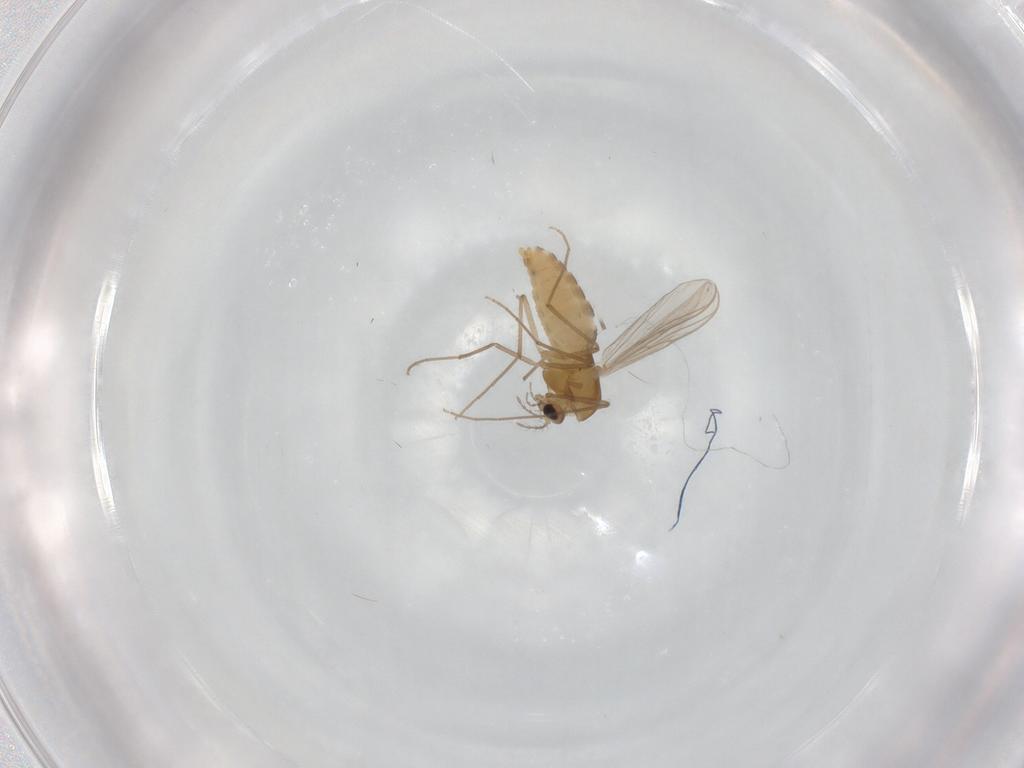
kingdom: Animalia
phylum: Arthropoda
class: Insecta
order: Diptera
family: Chironomidae
